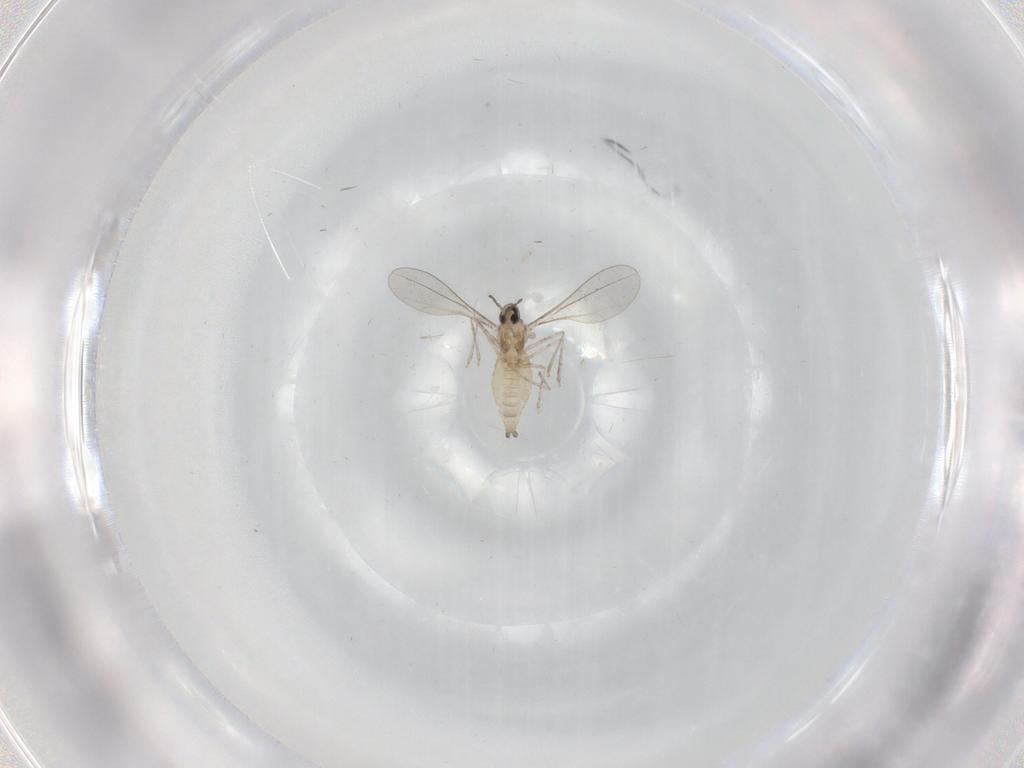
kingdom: Animalia
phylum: Arthropoda
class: Insecta
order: Diptera
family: Cecidomyiidae
